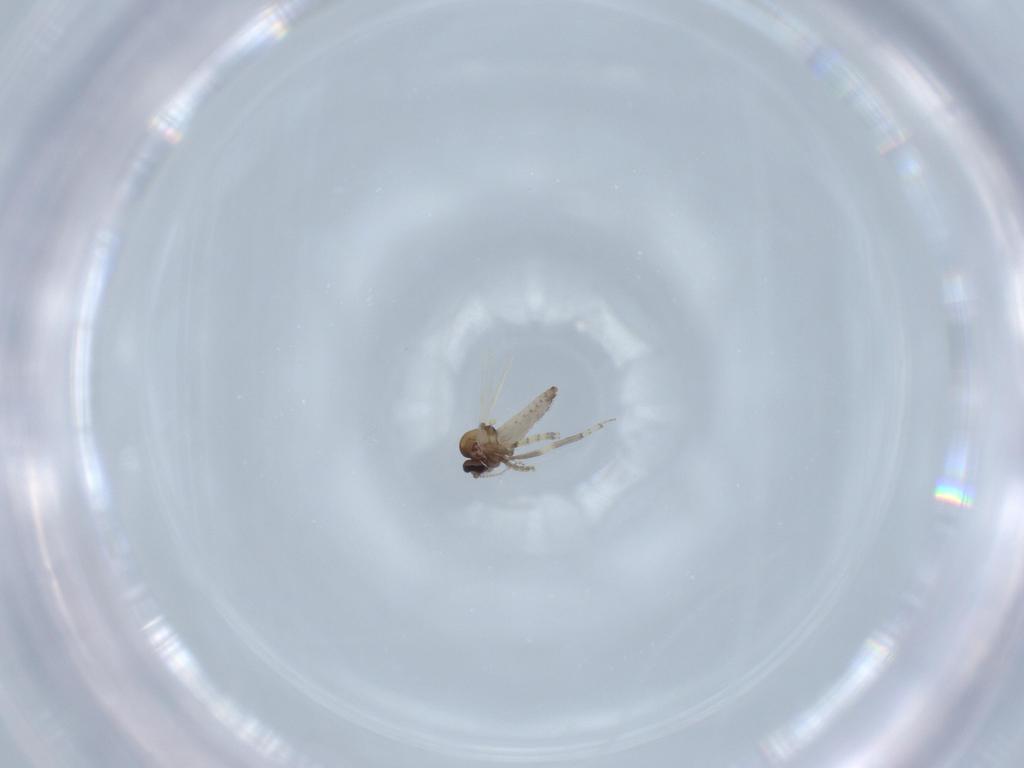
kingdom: Animalia
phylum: Arthropoda
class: Insecta
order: Diptera
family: Ceratopogonidae
